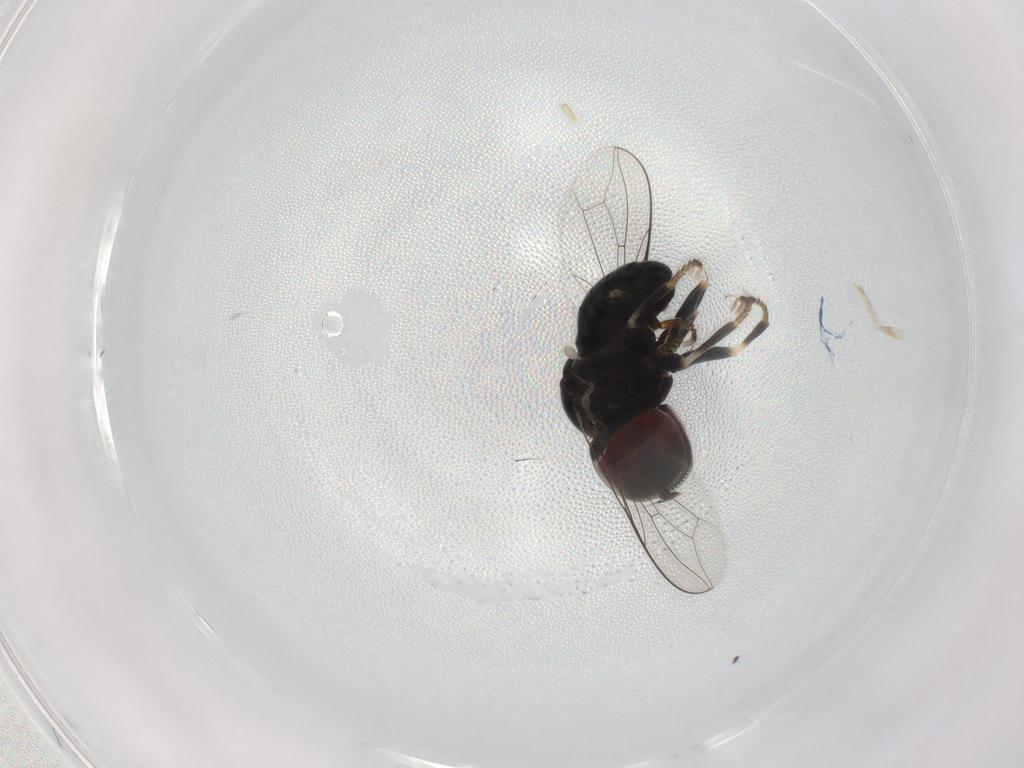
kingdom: Animalia
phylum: Arthropoda
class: Insecta
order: Diptera
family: Pipunculidae
